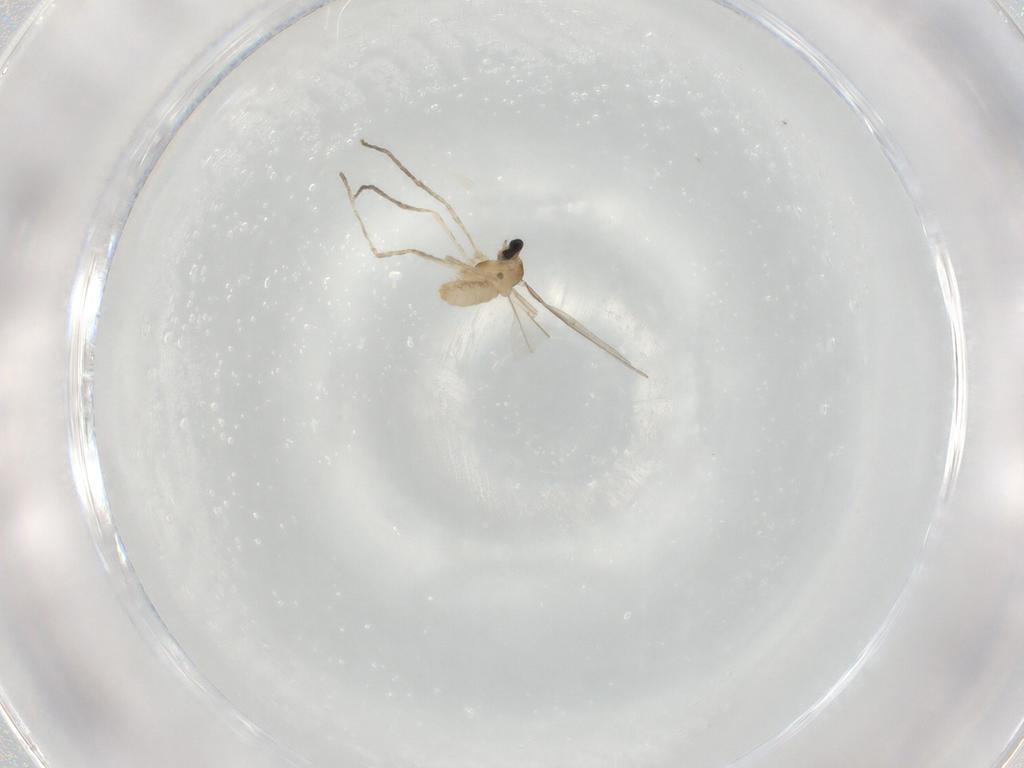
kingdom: Animalia
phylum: Arthropoda
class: Insecta
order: Diptera
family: Cecidomyiidae
